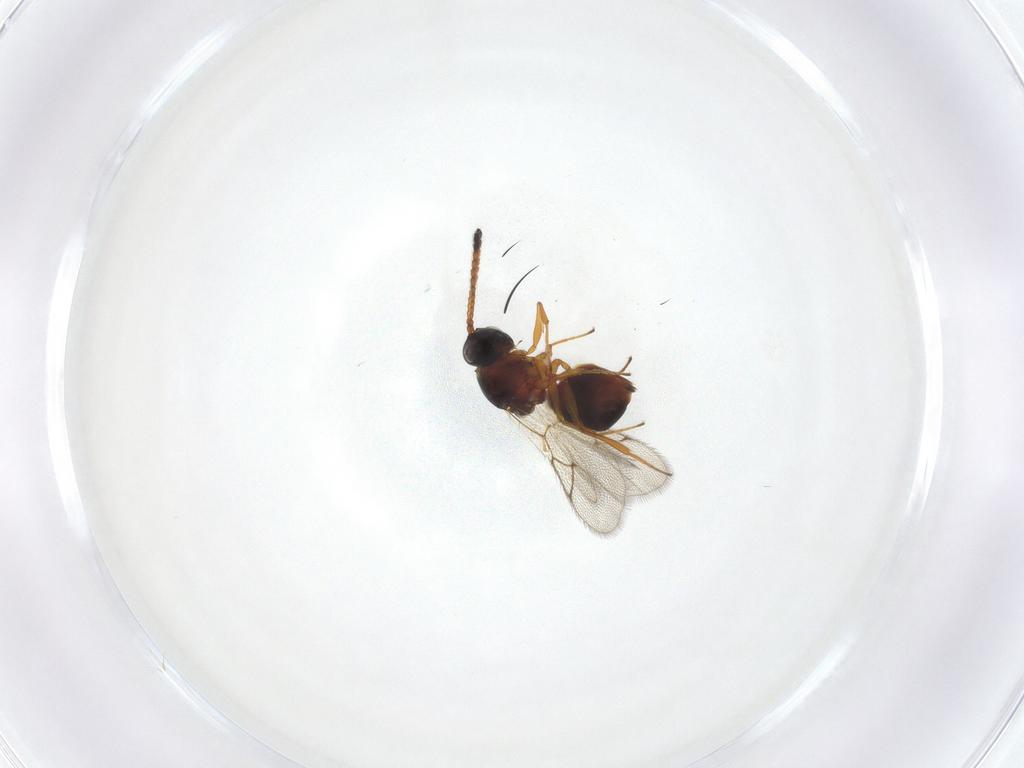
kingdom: Animalia
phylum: Arthropoda
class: Insecta
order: Hymenoptera
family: Figitidae
